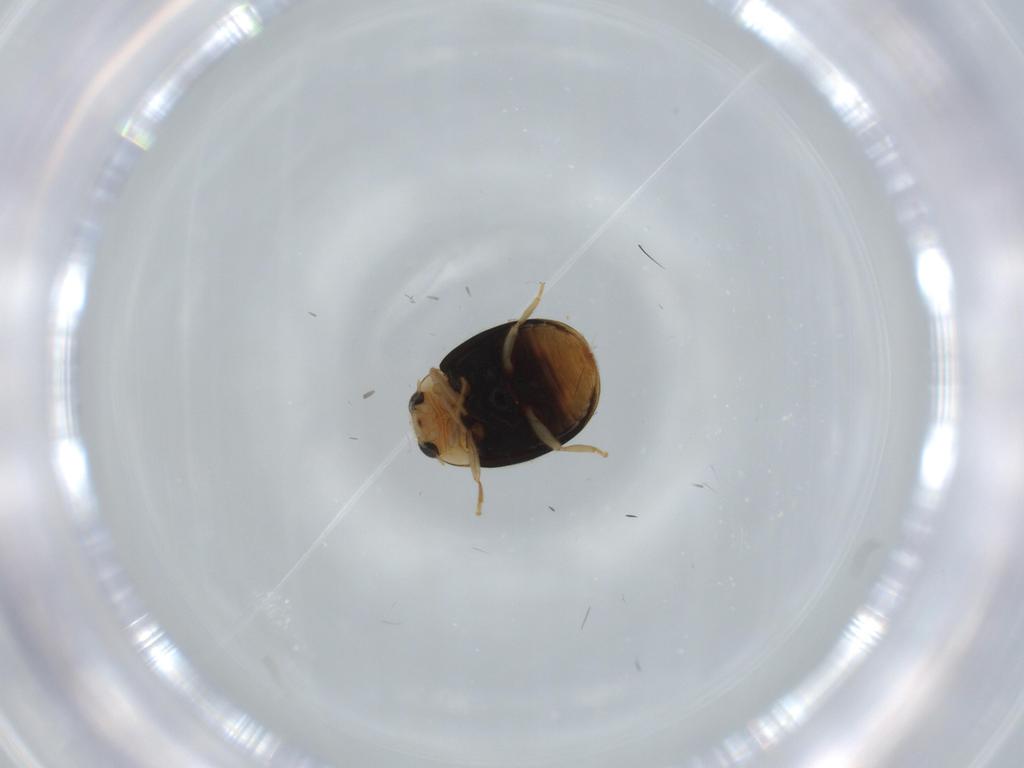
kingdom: Animalia
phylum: Arthropoda
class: Insecta
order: Coleoptera
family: Coccinellidae
